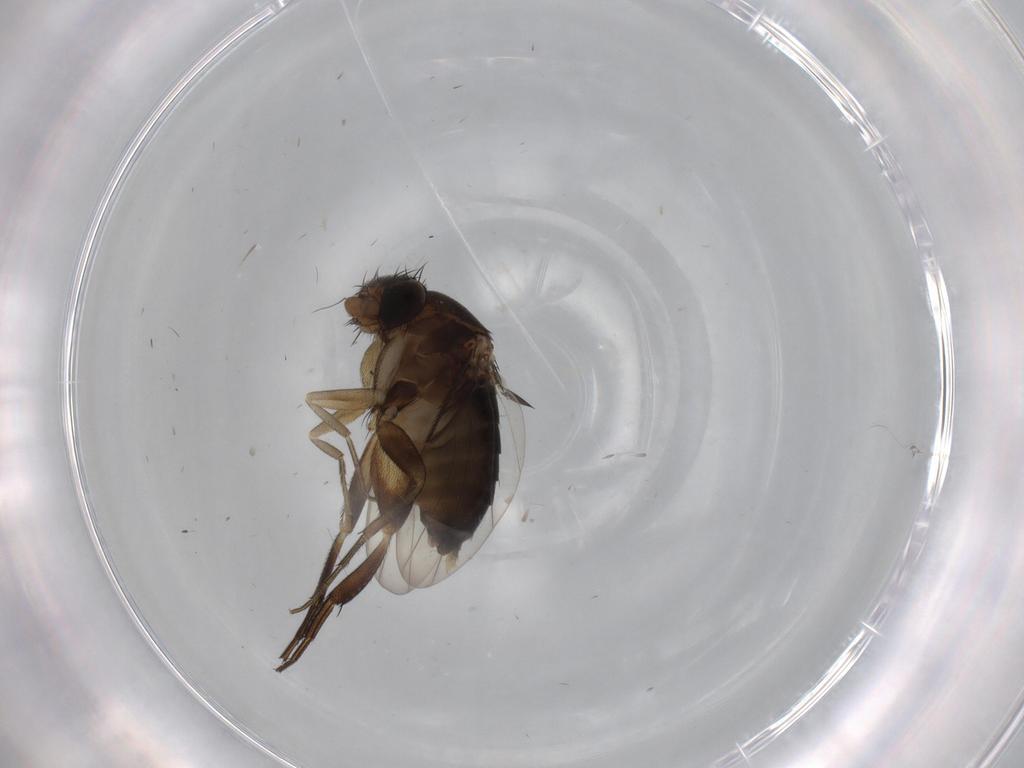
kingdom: Animalia
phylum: Arthropoda
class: Insecta
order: Diptera
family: Phoridae
